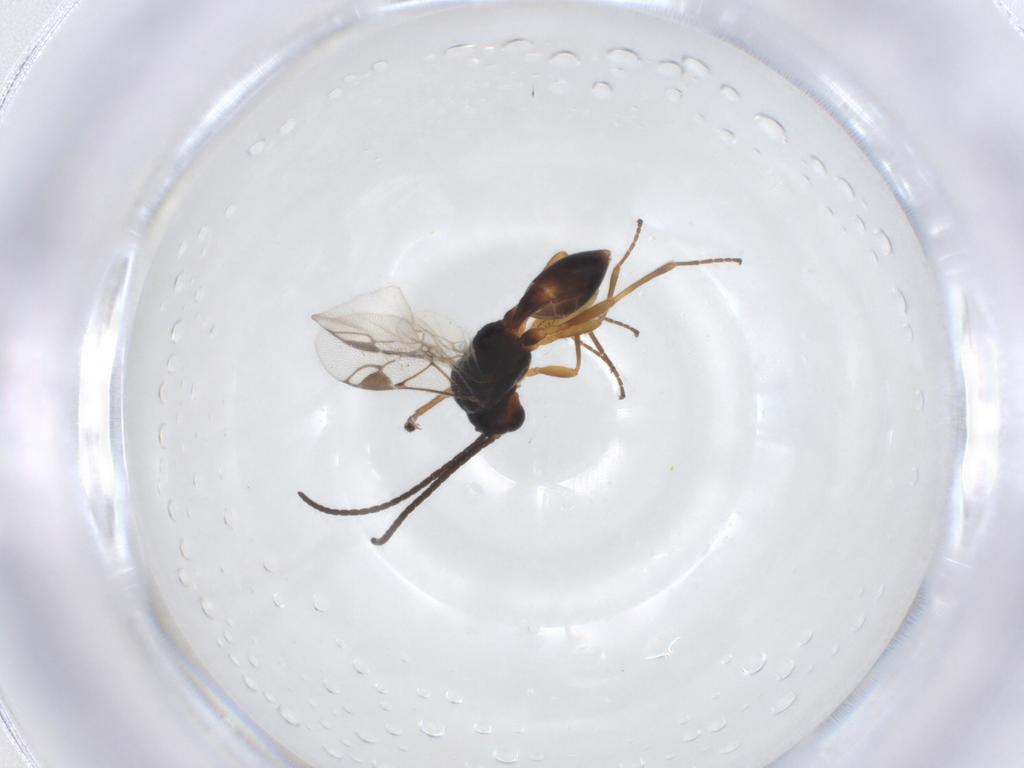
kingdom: Animalia
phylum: Arthropoda
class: Insecta
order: Hymenoptera
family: Braconidae
